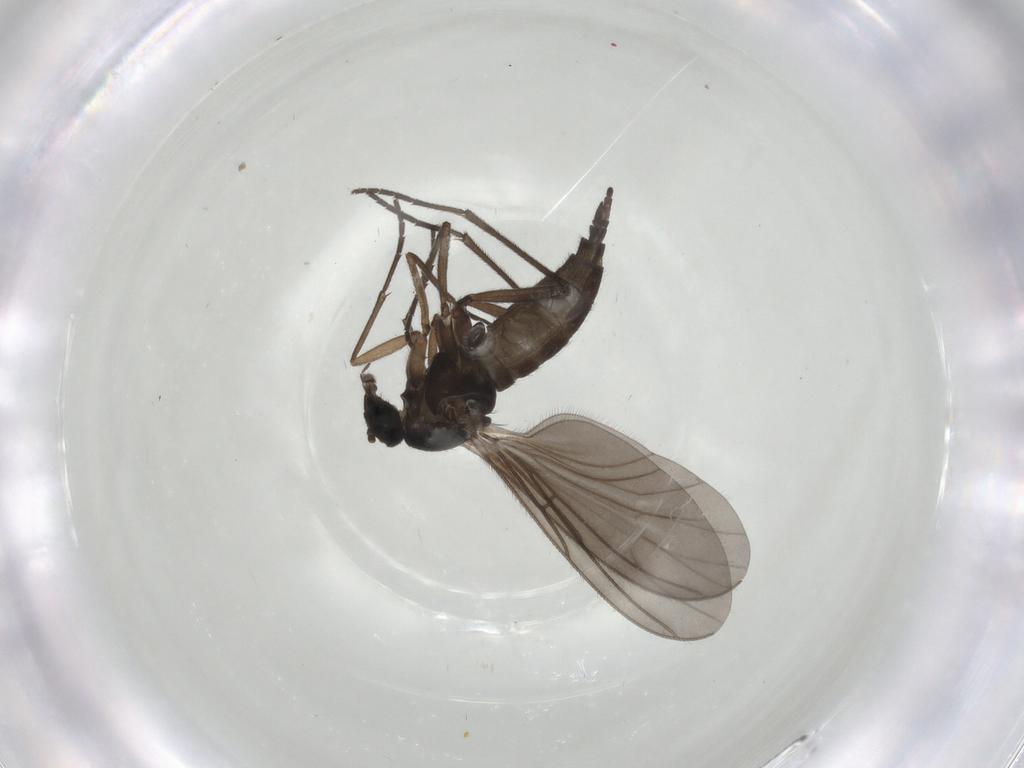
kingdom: Animalia
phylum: Arthropoda
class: Insecta
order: Diptera
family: Sciaridae
